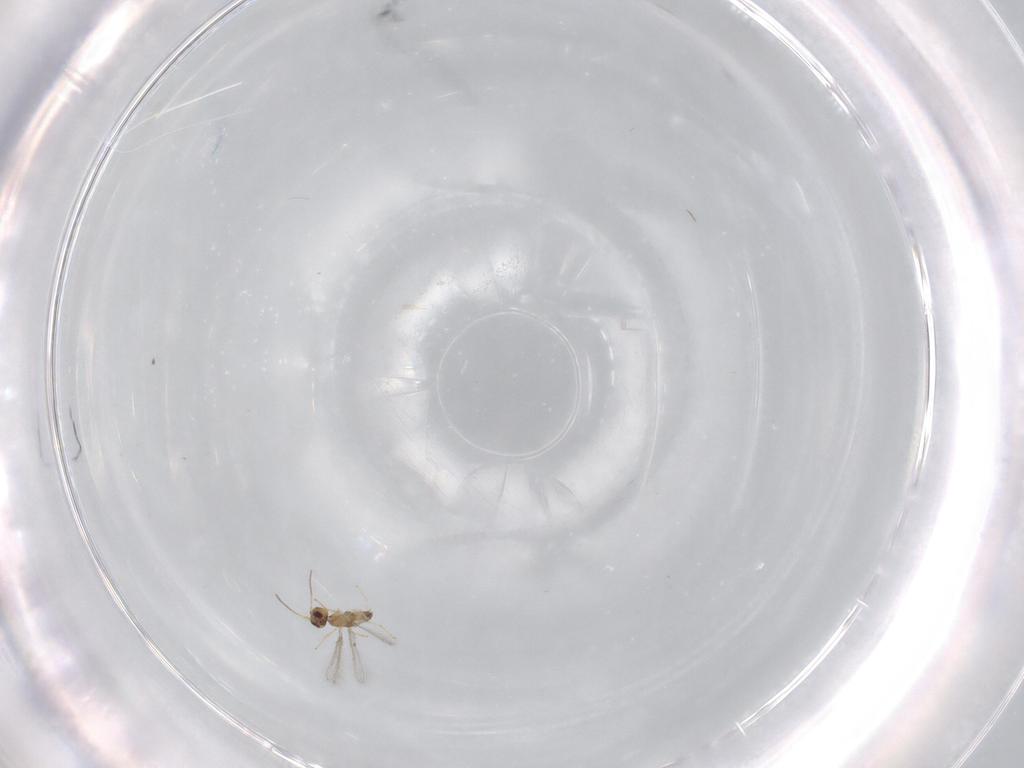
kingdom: Animalia
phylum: Arthropoda
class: Insecta
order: Hymenoptera
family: Mymaridae
